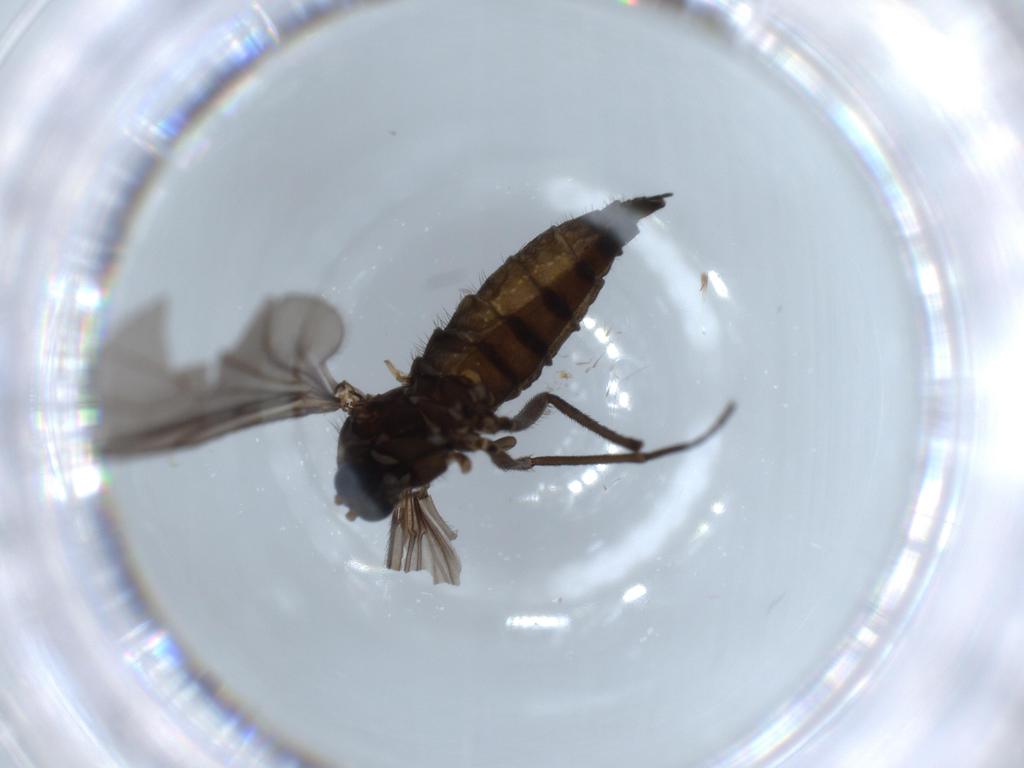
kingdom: Animalia
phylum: Arthropoda
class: Insecta
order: Diptera
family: Sciaridae
